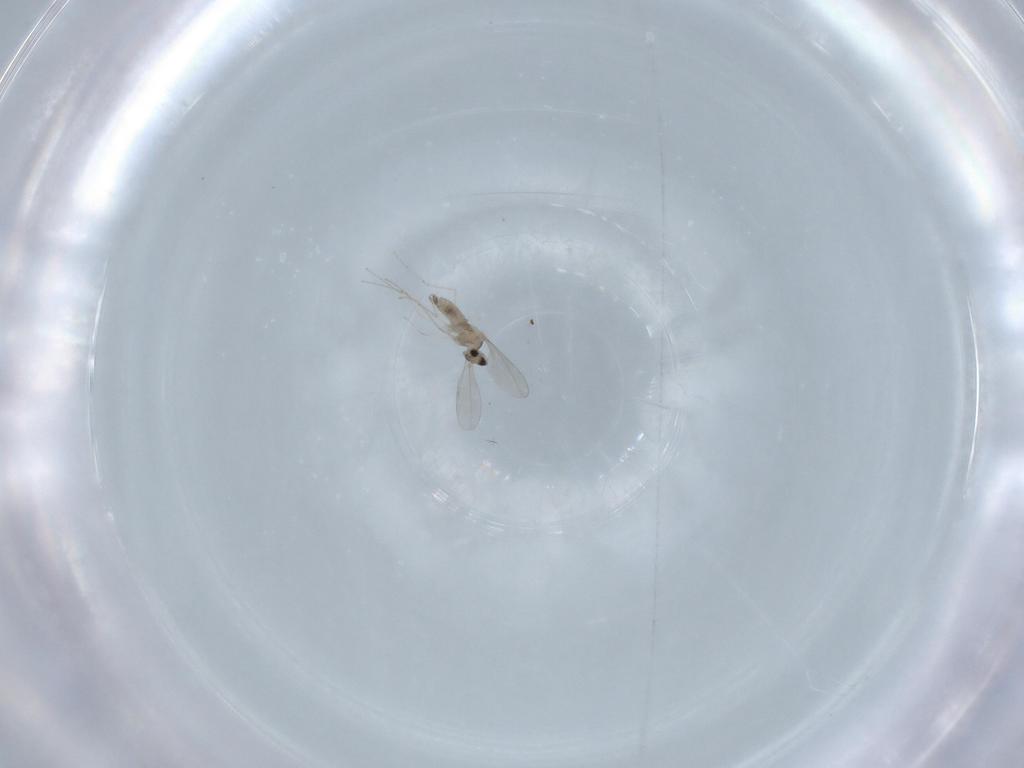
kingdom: Animalia
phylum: Arthropoda
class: Insecta
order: Diptera
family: Cecidomyiidae
